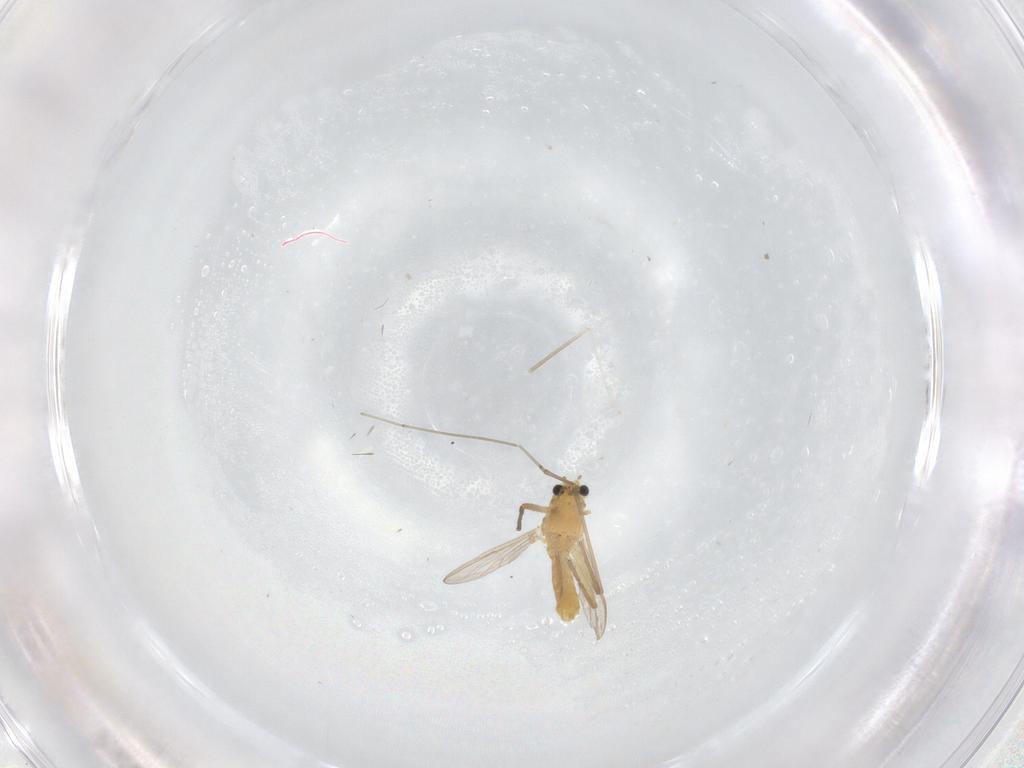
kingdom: Animalia
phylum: Arthropoda
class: Insecta
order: Diptera
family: Chironomidae
